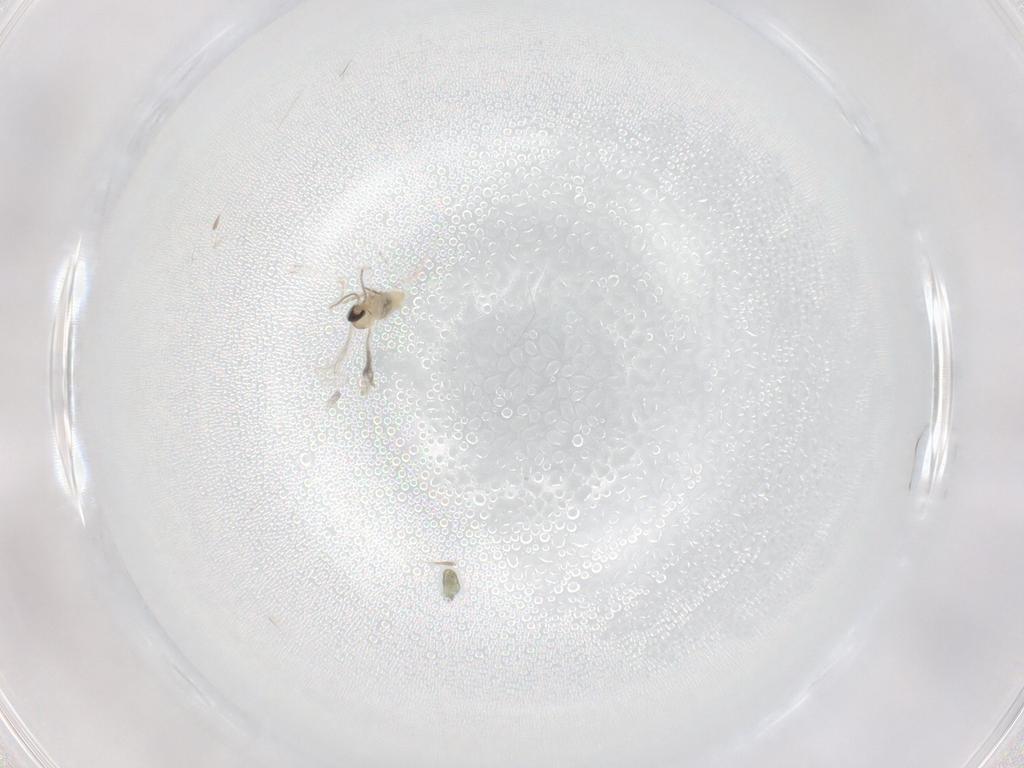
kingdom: Animalia
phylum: Arthropoda
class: Insecta
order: Diptera
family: Cecidomyiidae
